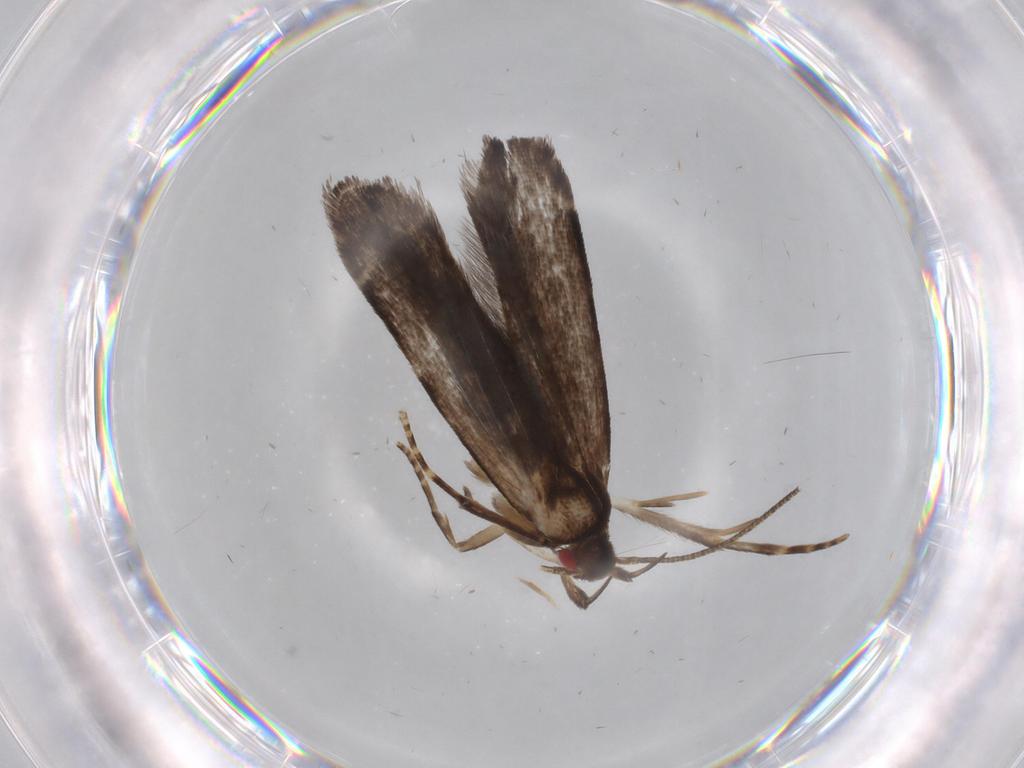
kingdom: Animalia
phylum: Arthropoda
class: Insecta
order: Lepidoptera
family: Gelechiidae
